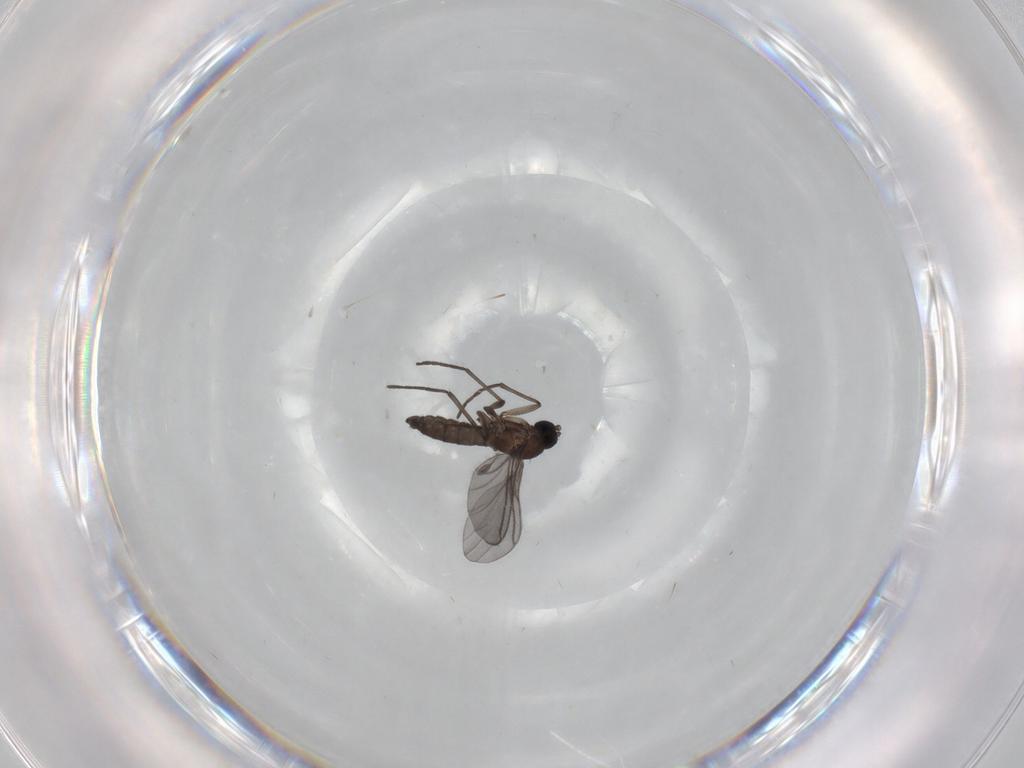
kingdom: Animalia
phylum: Arthropoda
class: Insecta
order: Diptera
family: Sciaridae
